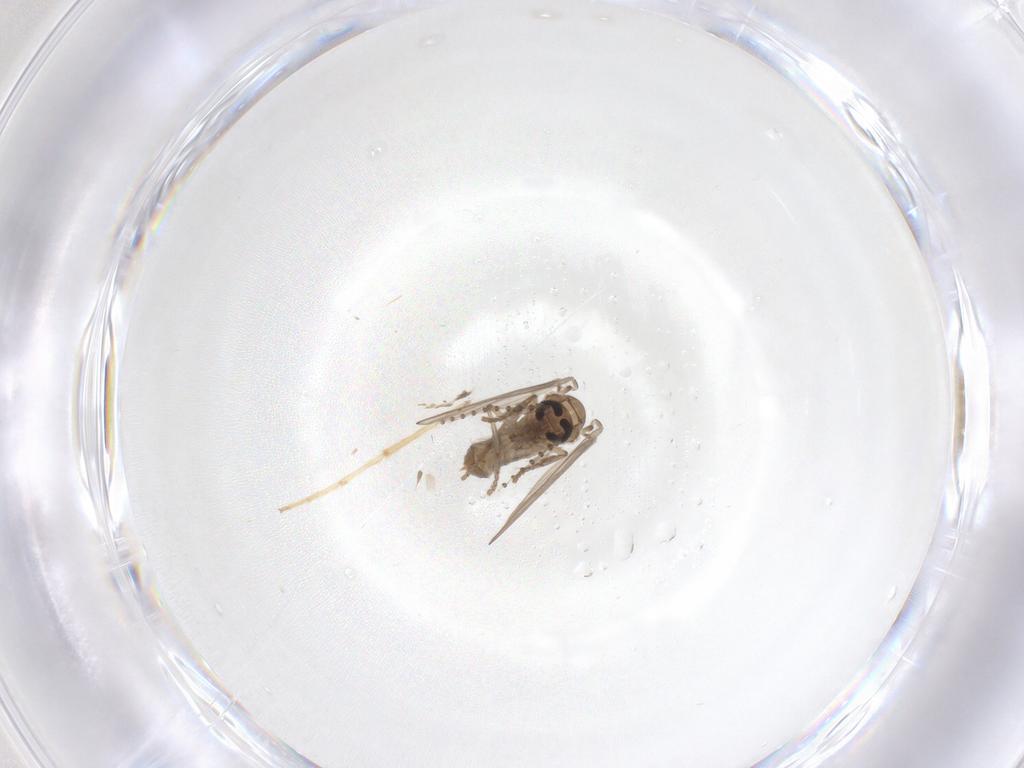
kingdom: Animalia
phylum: Arthropoda
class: Insecta
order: Diptera
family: Psychodidae
